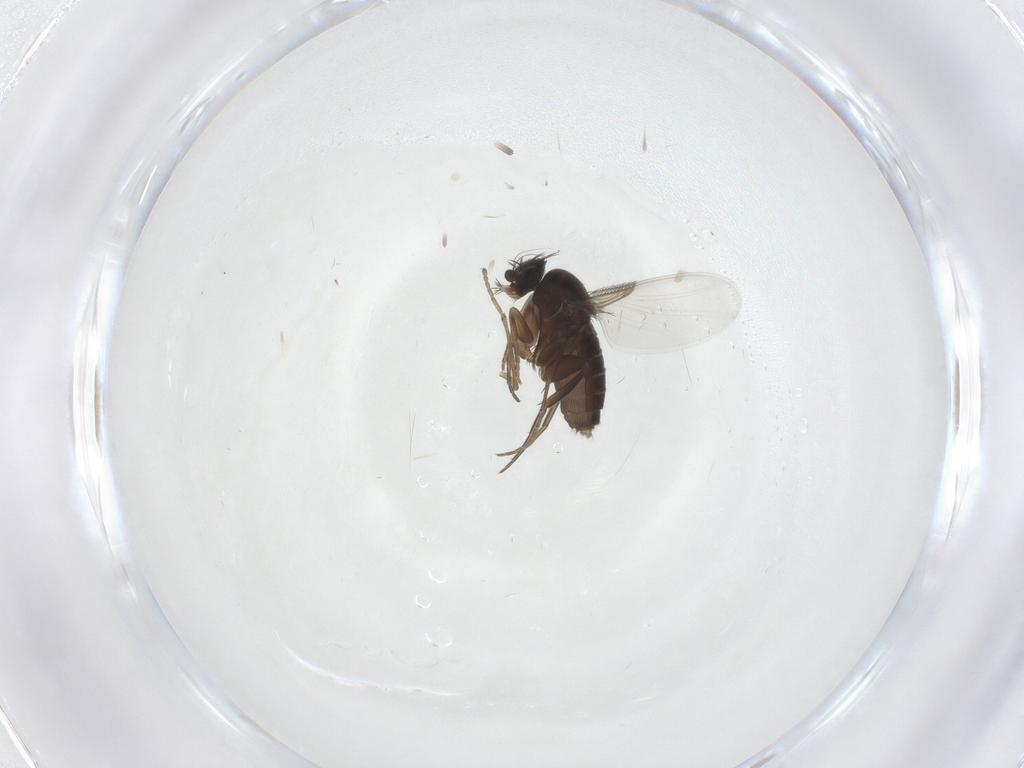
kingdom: Animalia
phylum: Arthropoda
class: Insecta
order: Diptera
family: Phoridae
